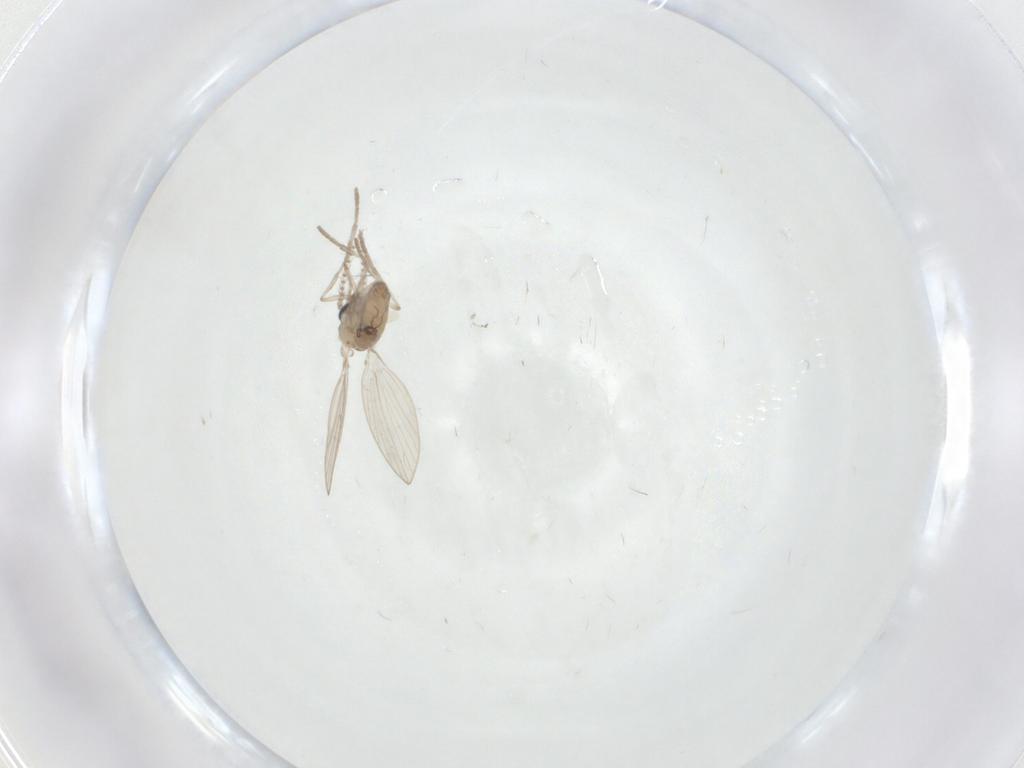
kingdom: Animalia
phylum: Arthropoda
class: Insecta
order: Diptera
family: Psychodidae
